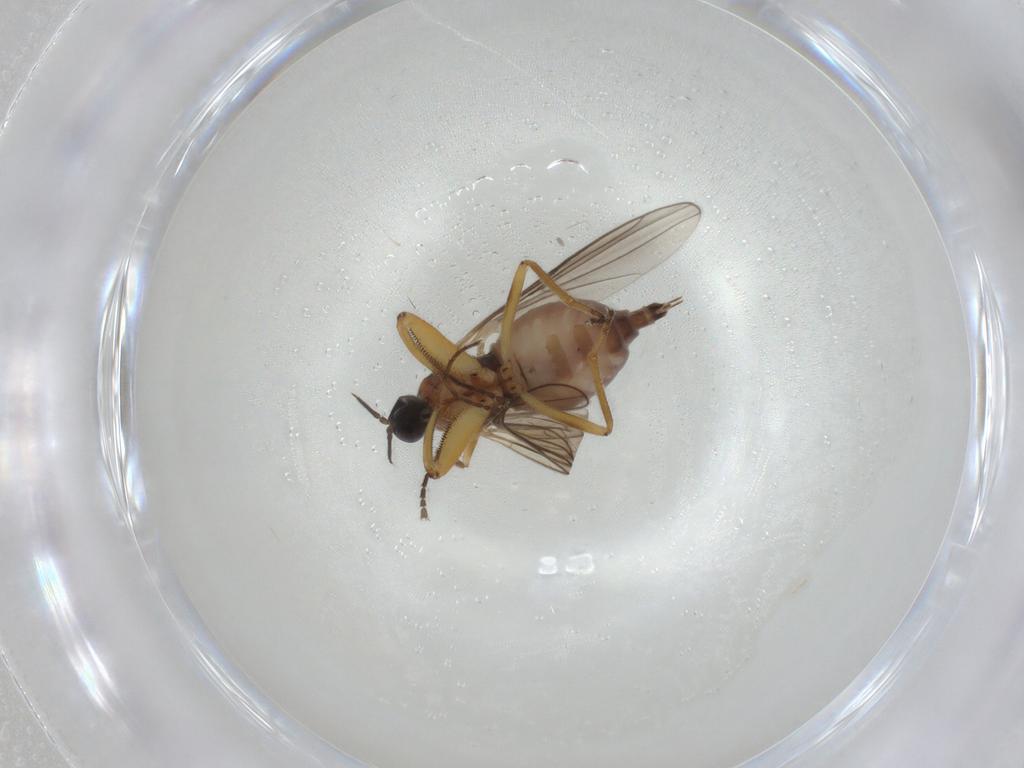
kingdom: Animalia
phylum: Arthropoda
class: Insecta
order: Diptera
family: Hybotidae
